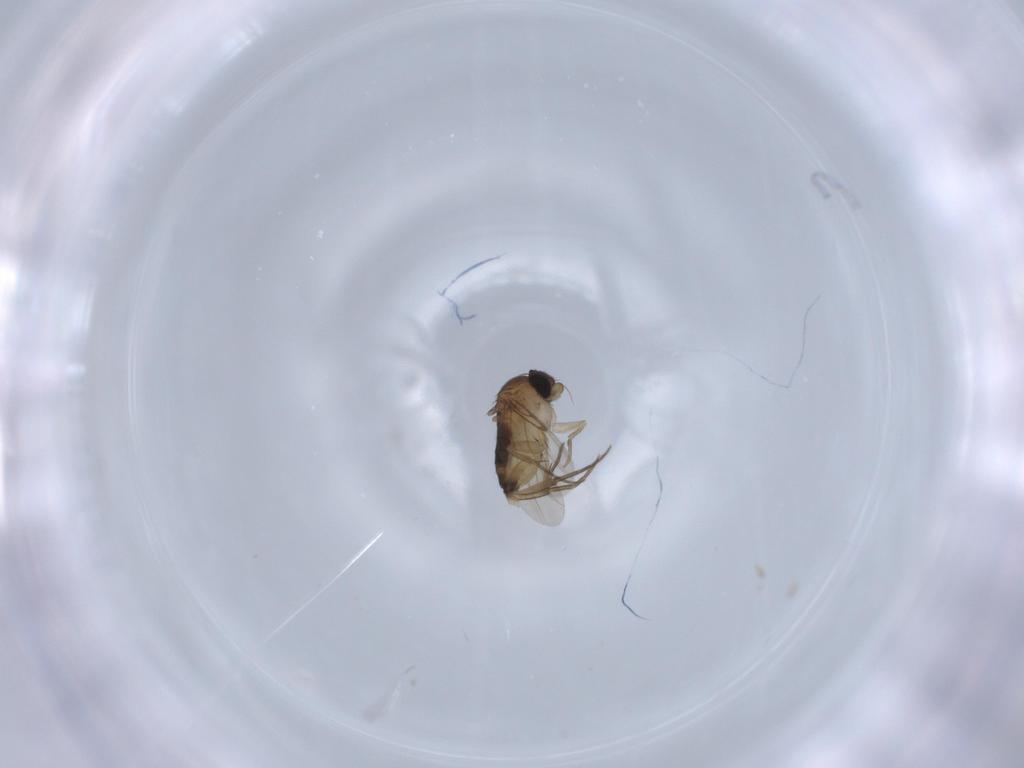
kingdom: Animalia
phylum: Arthropoda
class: Insecta
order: Diptera
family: Phoridae
